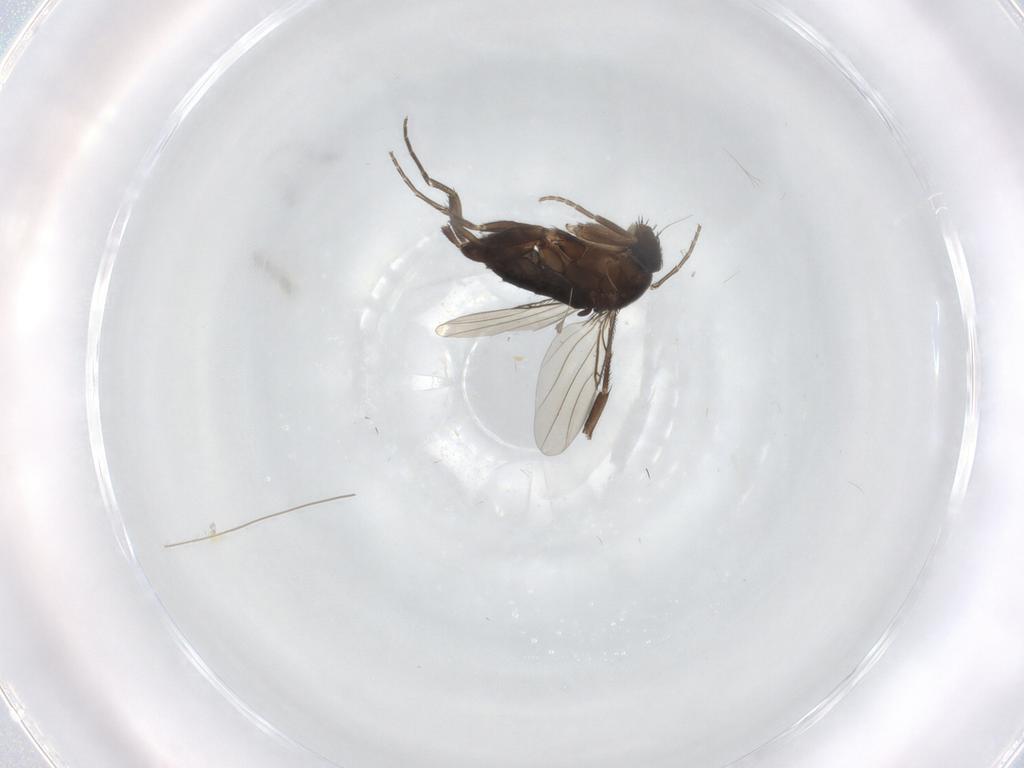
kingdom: Animalia
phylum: Arthropoda
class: Insecta
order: Diptera
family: Phoridae
